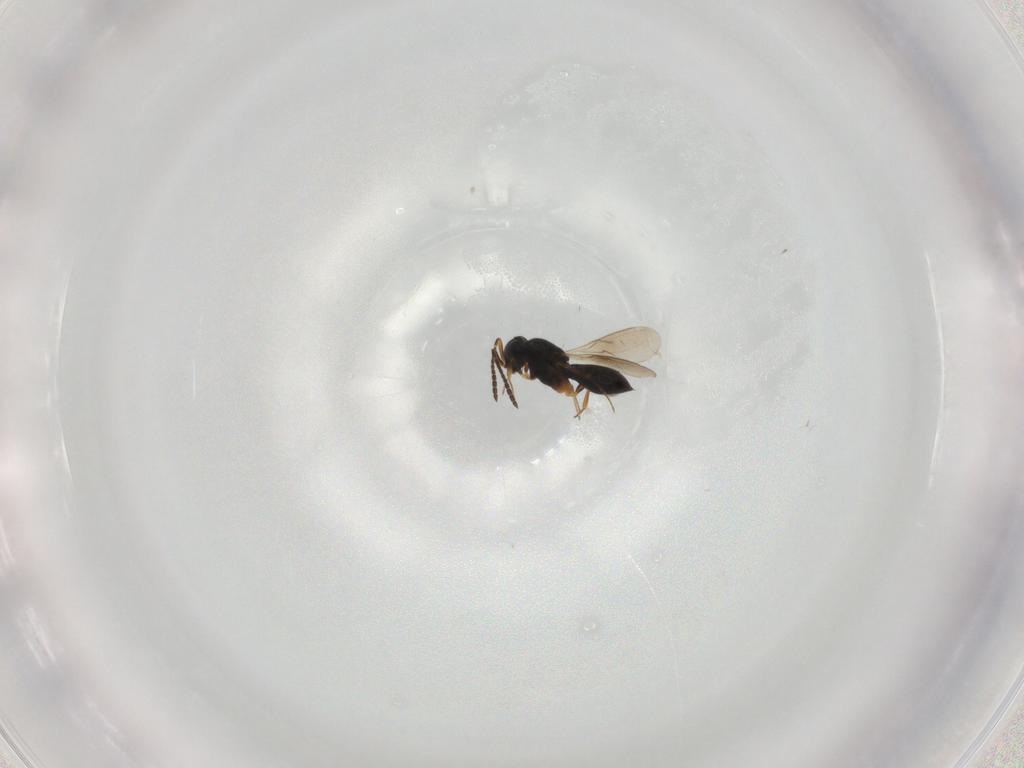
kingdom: Animalia
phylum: Arthropoda
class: Insecta
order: Hymenoptera
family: Scelionidae
